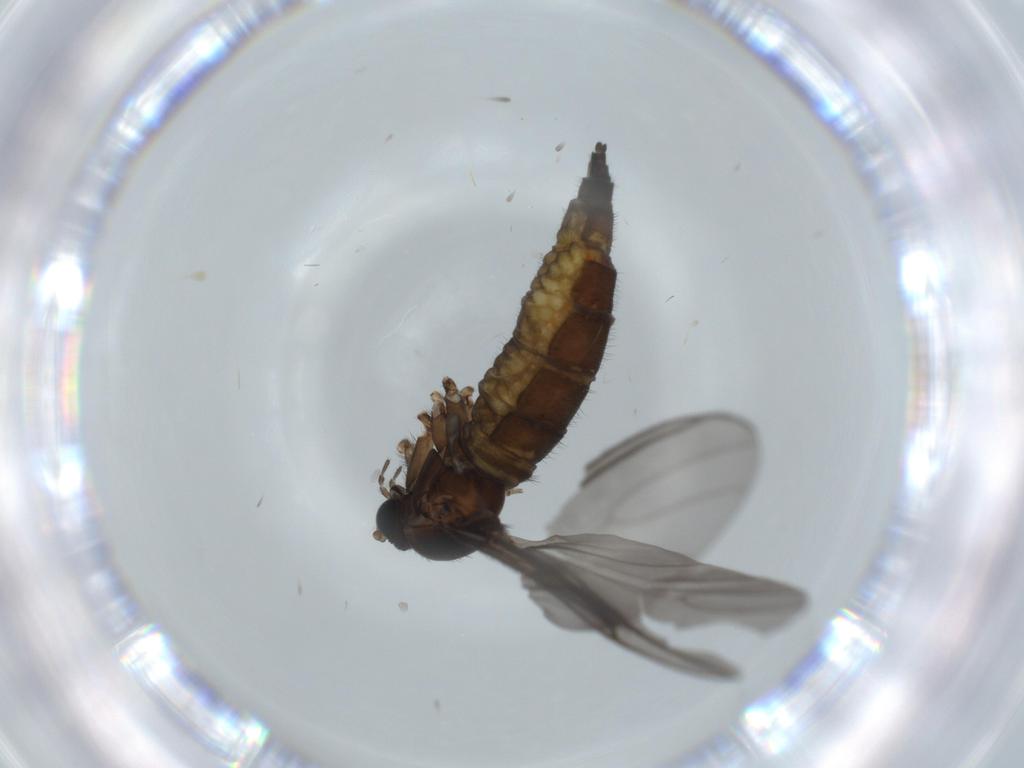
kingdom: Animalia
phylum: Arthropoda
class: Insecta
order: Diptera
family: Sciaridae
